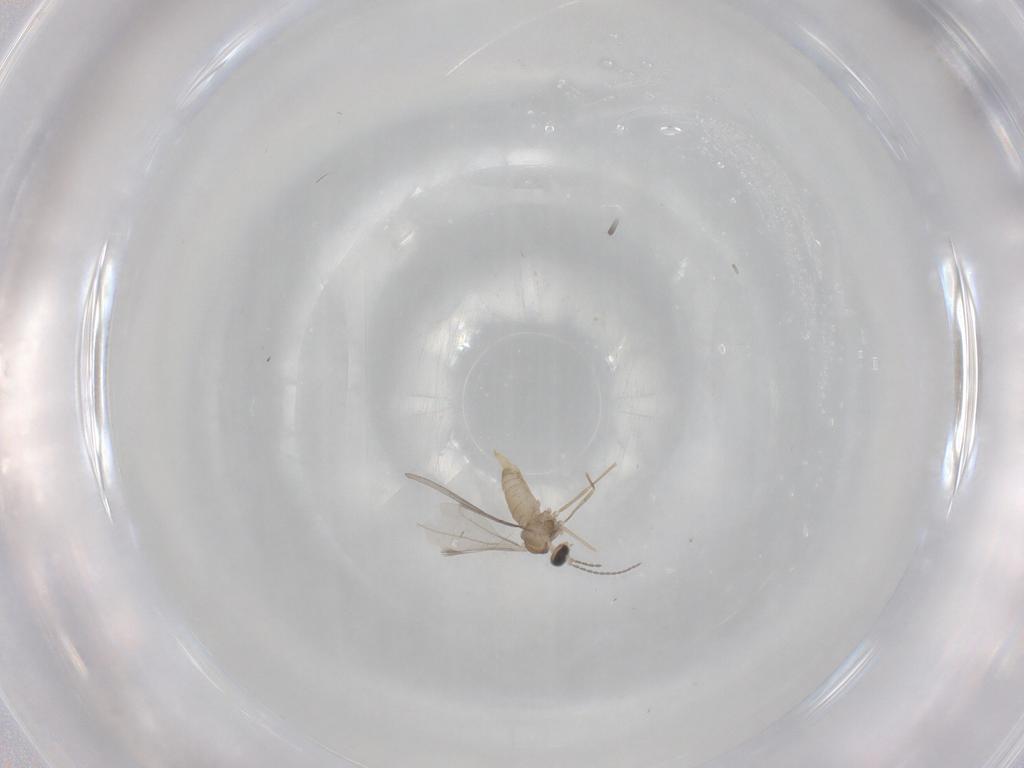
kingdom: Animalia
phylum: Arthropoda
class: Insecta
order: Diptera
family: Cecidomyiidae
